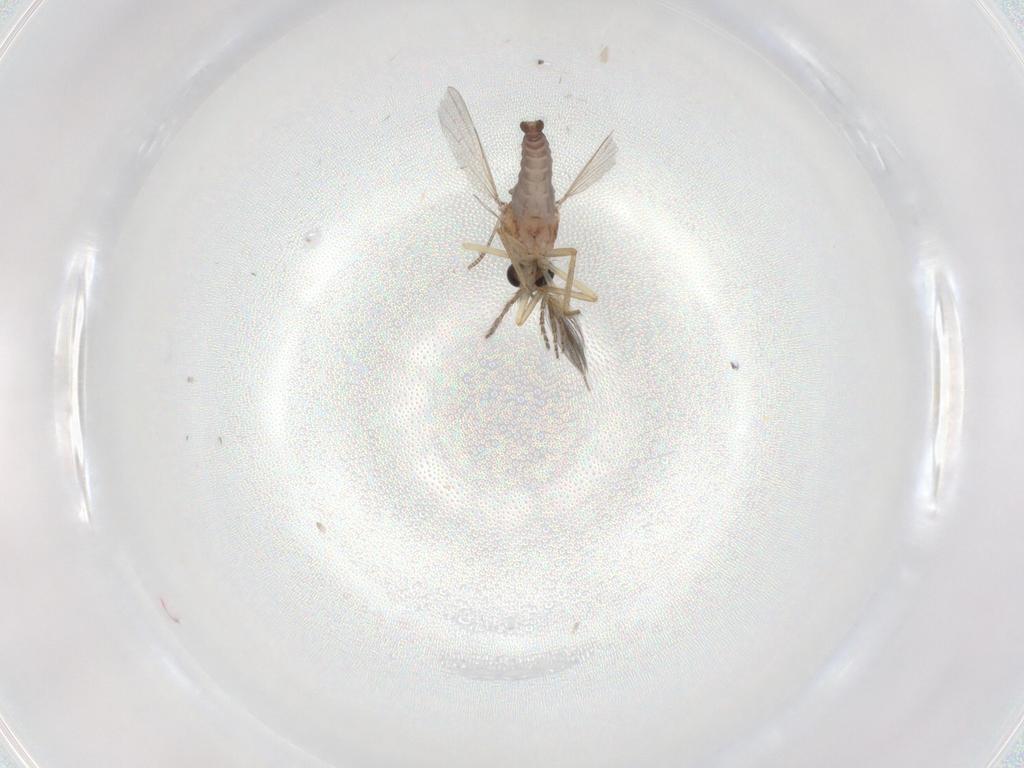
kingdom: Animalia
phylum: Arthropoda
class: Insecta
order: Diptera
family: Ceratopogonidae
